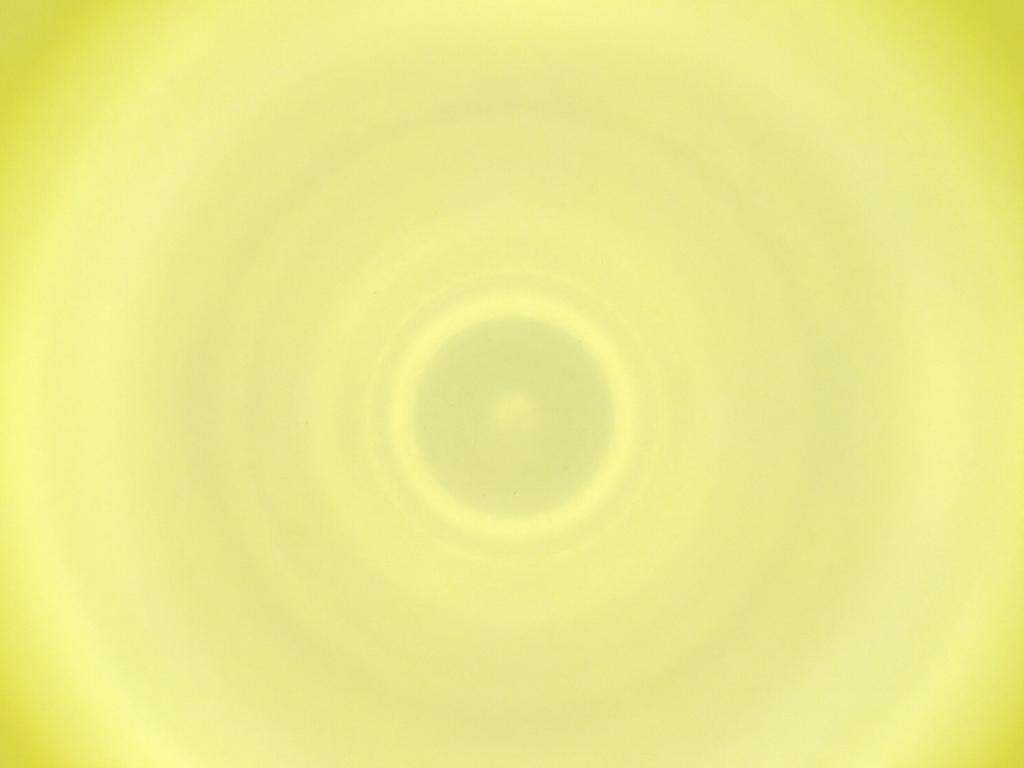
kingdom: Animalia
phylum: Arthropoda
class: Insecta
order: Diptera
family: Cecidomyiidae
